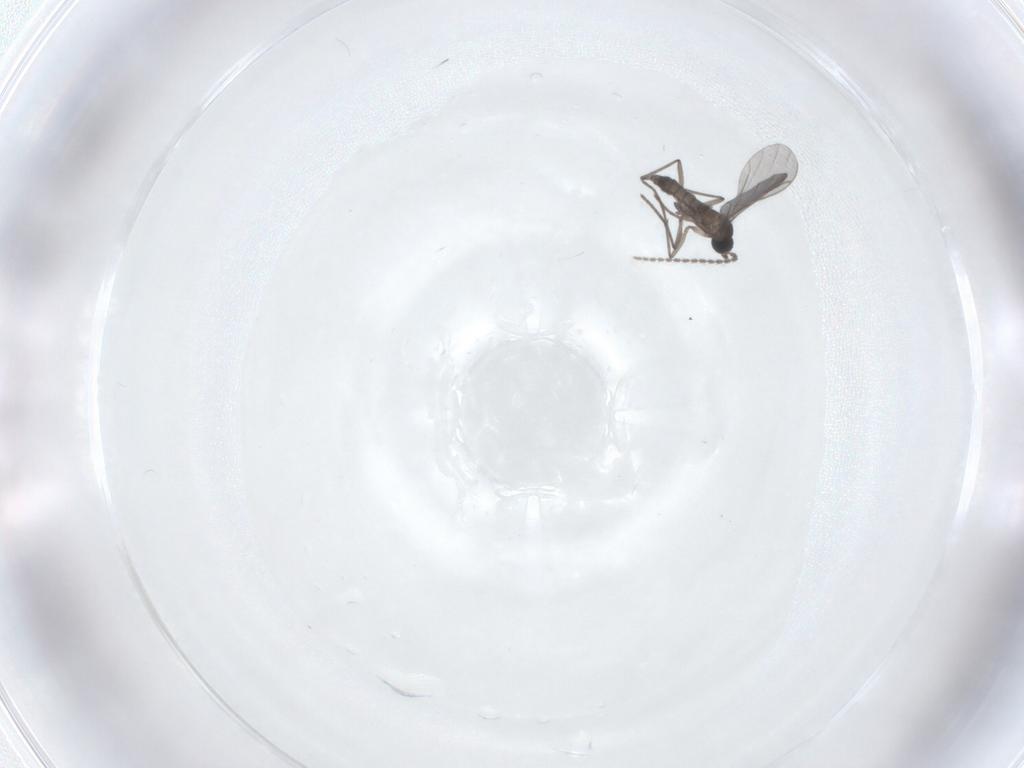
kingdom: Animalia
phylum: Arthropoda
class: Insecta
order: Diptera
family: Sciaridae
